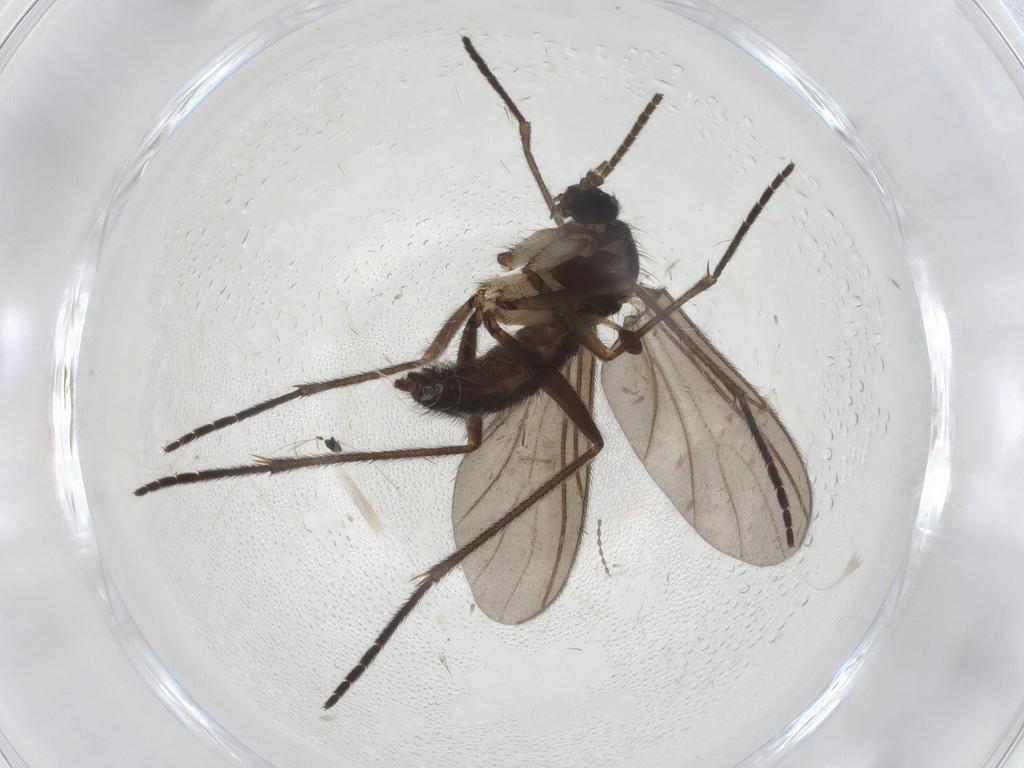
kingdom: Animalia
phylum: Arthropoda
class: Insecta
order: Diptera
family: Sciaridae
